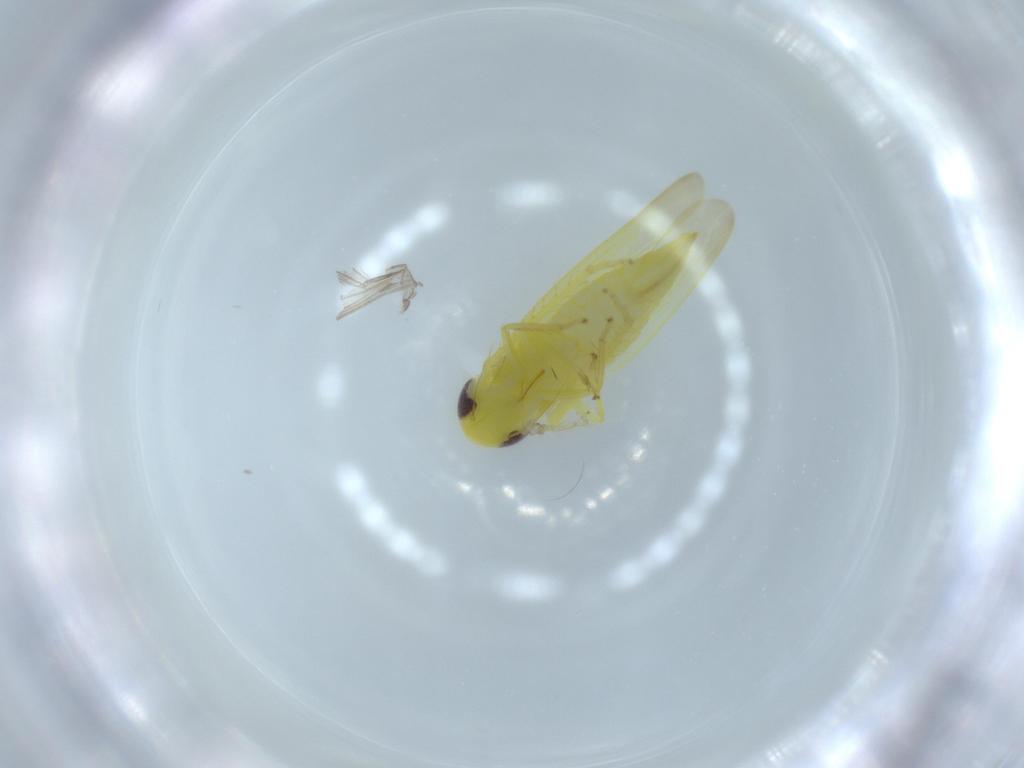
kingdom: Animalia
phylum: Arthropoda
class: Insecta
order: Hemiptera
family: Cicadellidae
